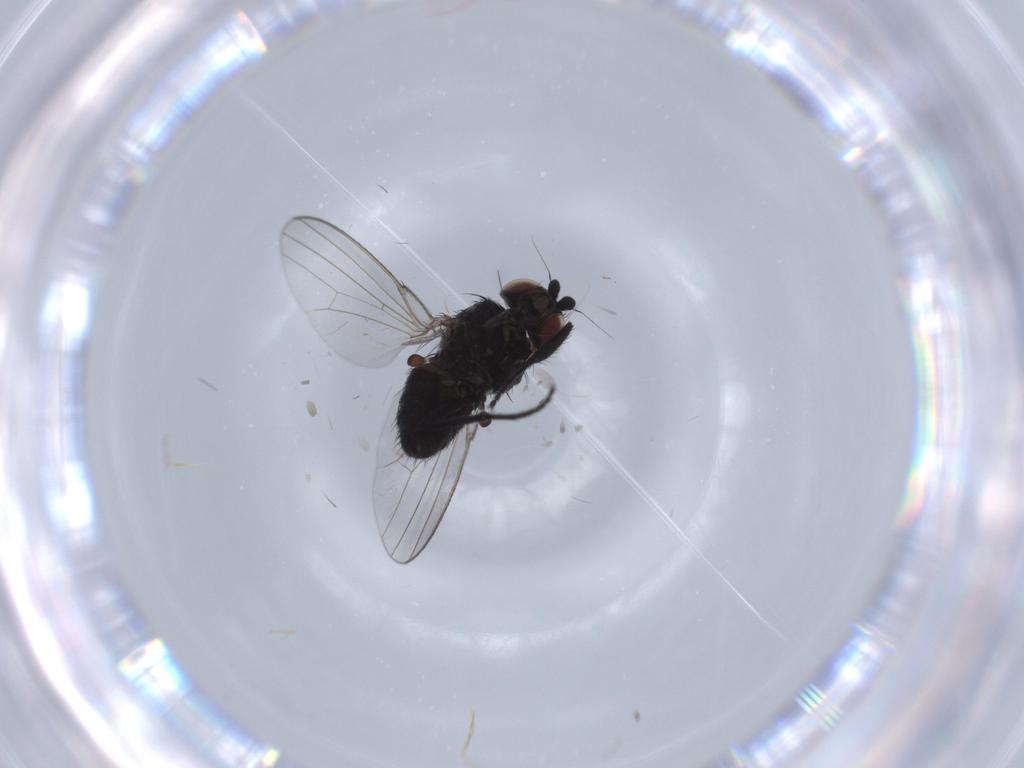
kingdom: Animalia
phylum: Arthropoda
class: Insecta
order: Diptera
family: Milichiidae
